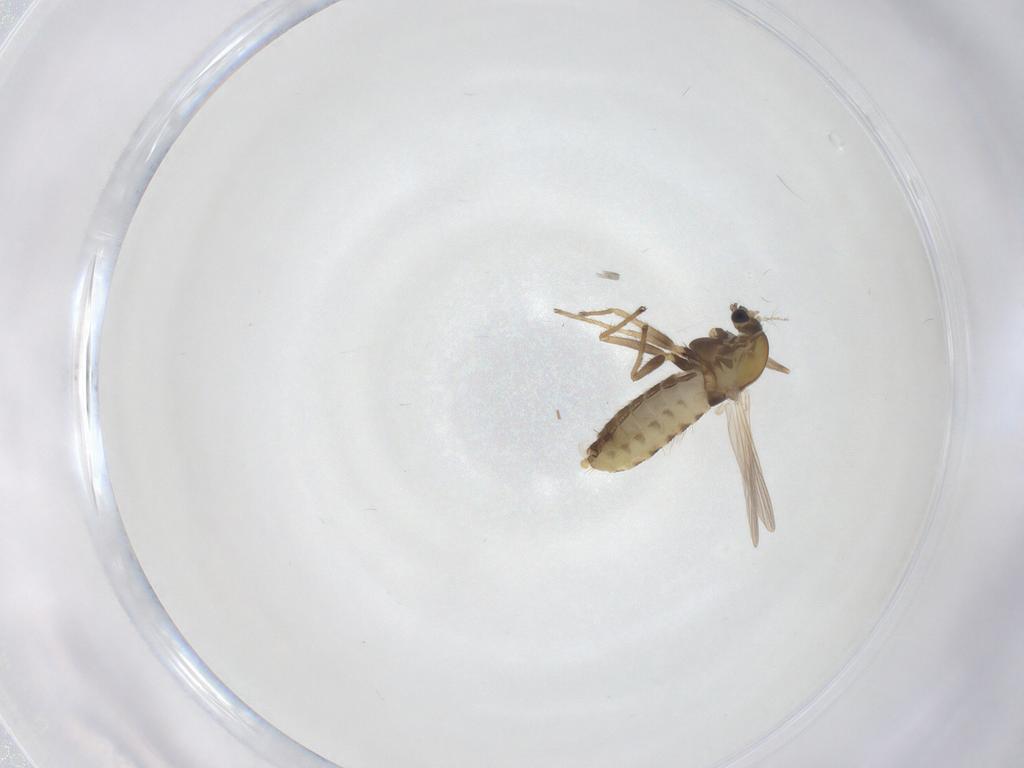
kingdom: Animalia
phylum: Arthropoda
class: Insecta
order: Diptera
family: Chironomidae
